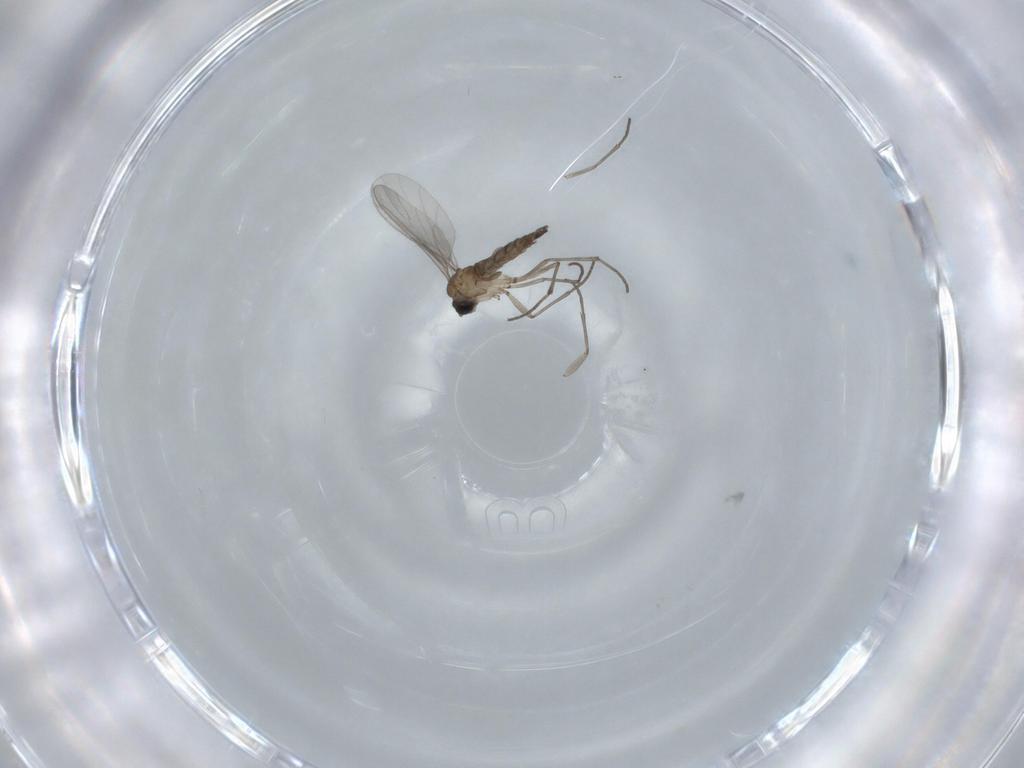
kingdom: Animalia
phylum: Arthropoda
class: Insecta
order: Diptera
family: Sciaridae
